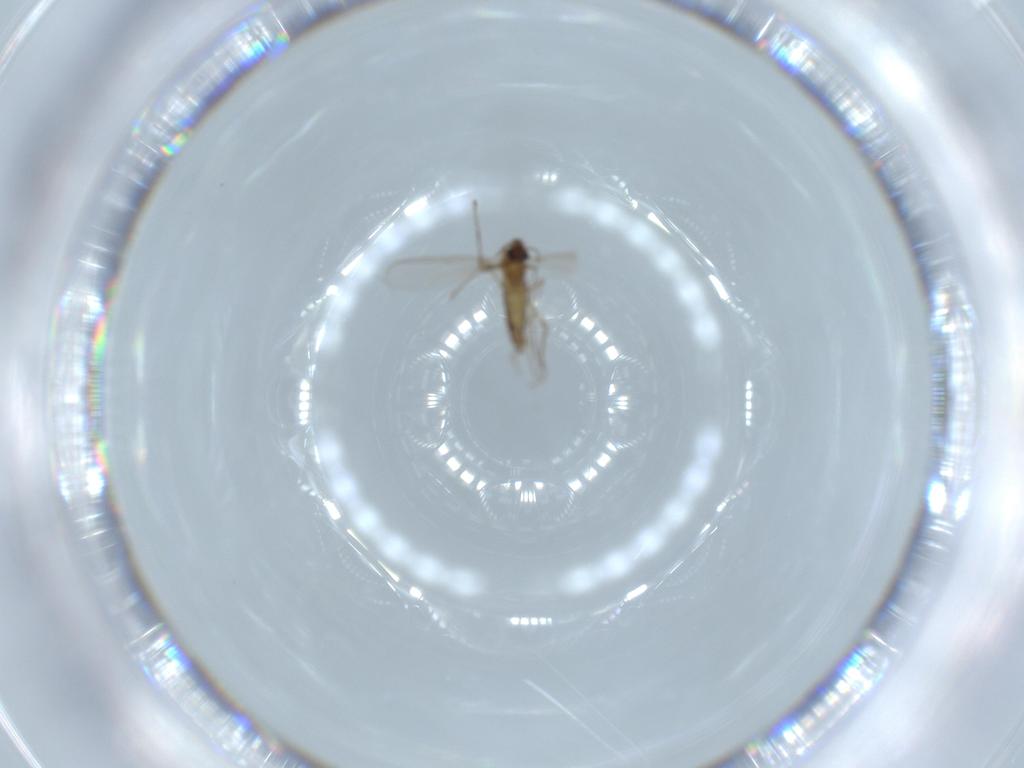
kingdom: Animalia
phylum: Arthropoda
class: Insecta
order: Diptera
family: Chironomidae
